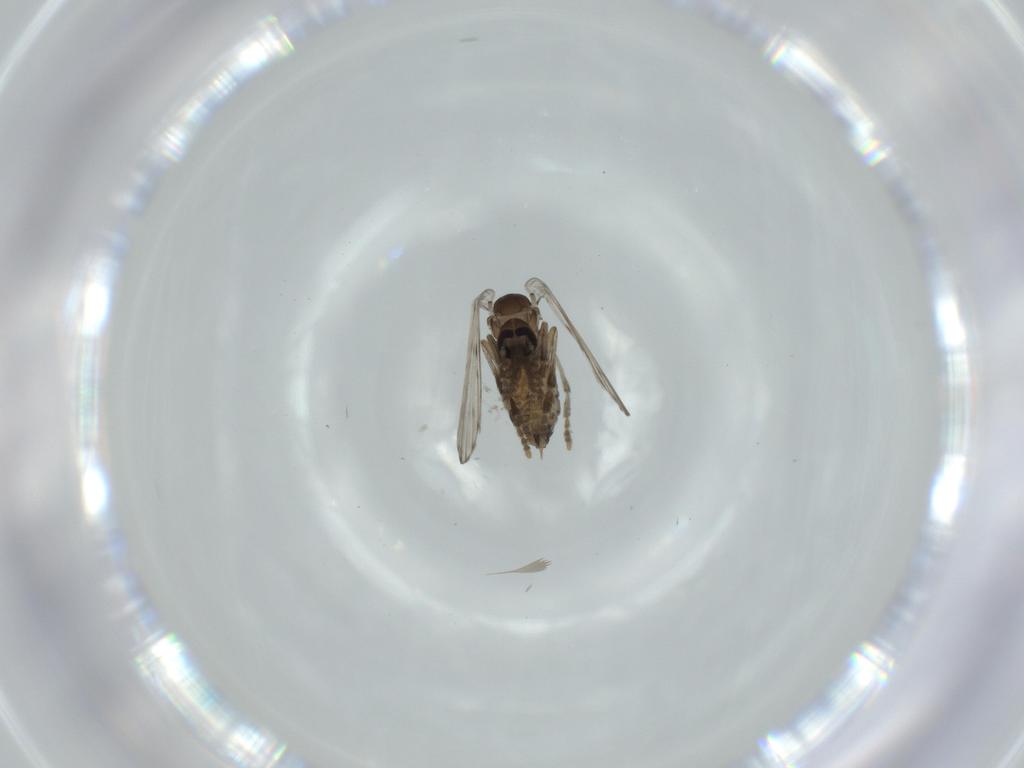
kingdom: Animalia
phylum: Arthropoda
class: Insecta
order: Diptera
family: Psychodidae
